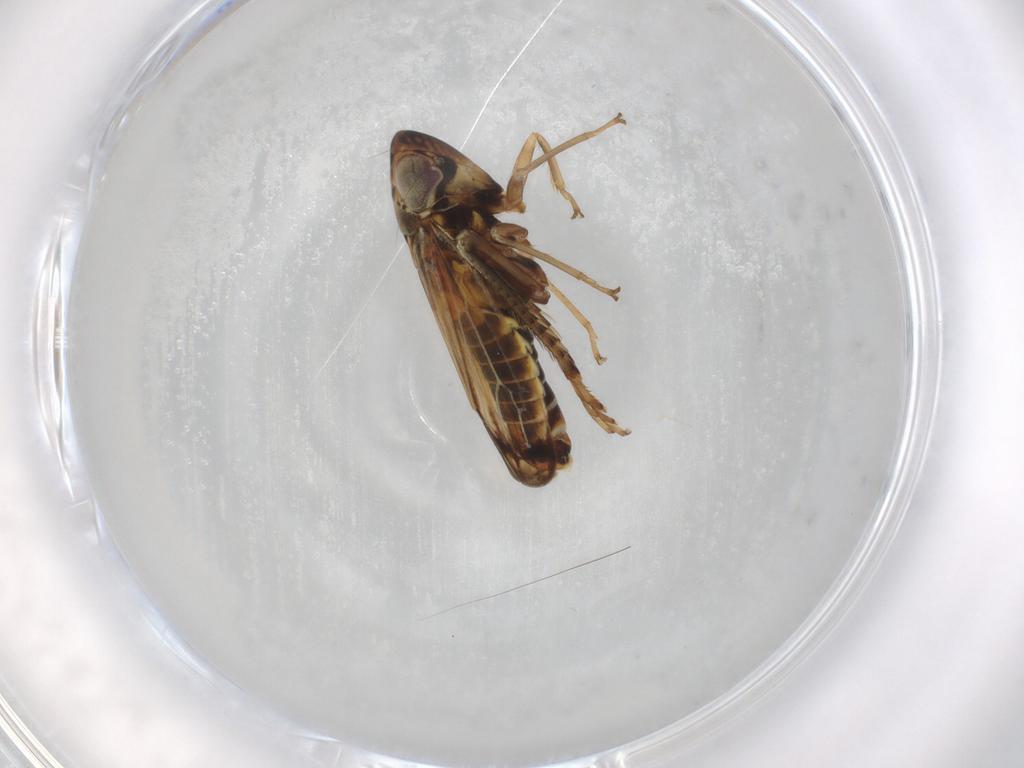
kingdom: Animalia
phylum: Arthropoda
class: Insecta
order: Hemiptera
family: Cicadellidae
